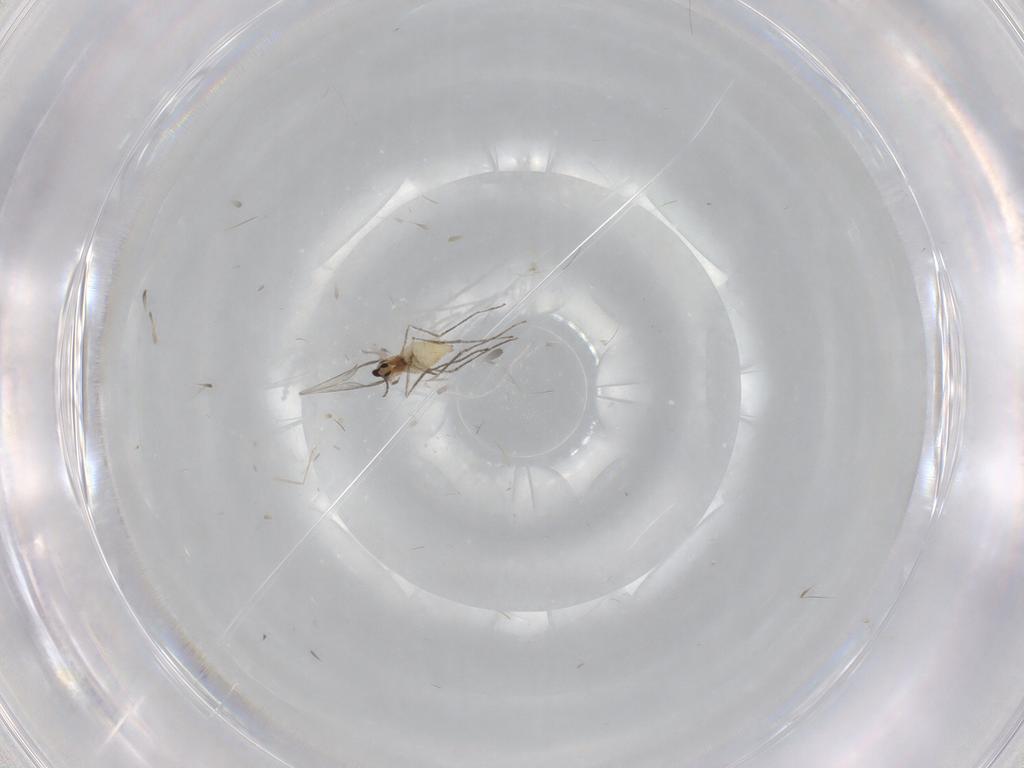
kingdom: Animalia
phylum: Arthropoda
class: Insecta
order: Diptera
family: Cecidomyiidae
